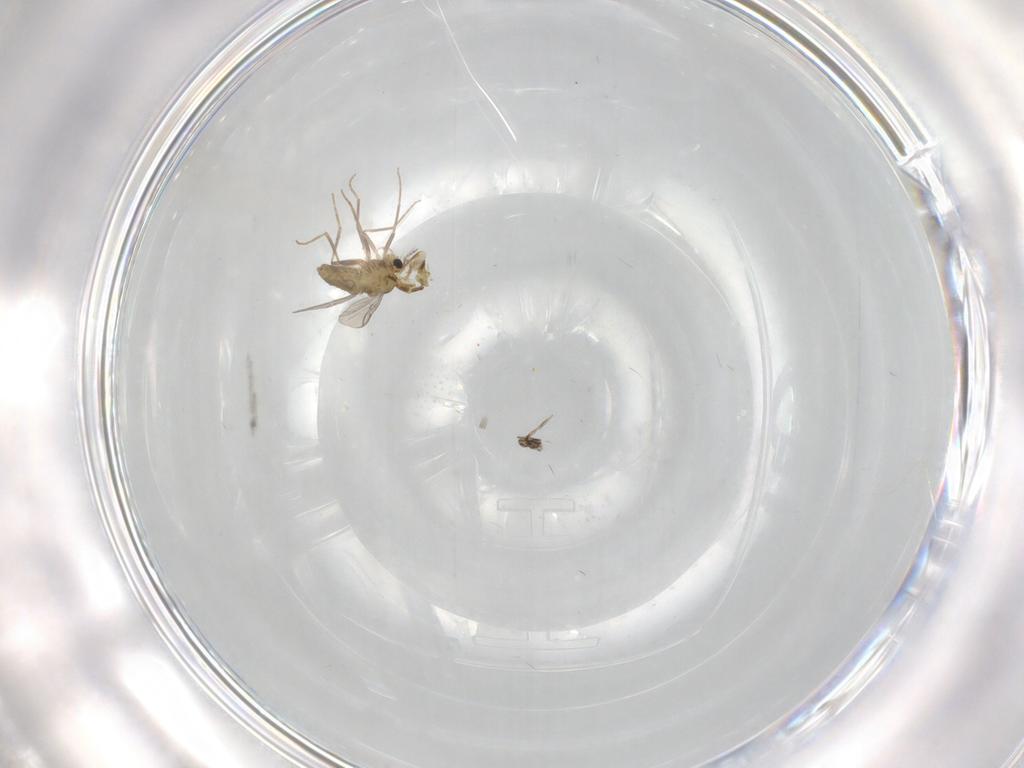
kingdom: Animalia
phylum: Arthropoda
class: Insecta
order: Diptera
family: Chironomidae
